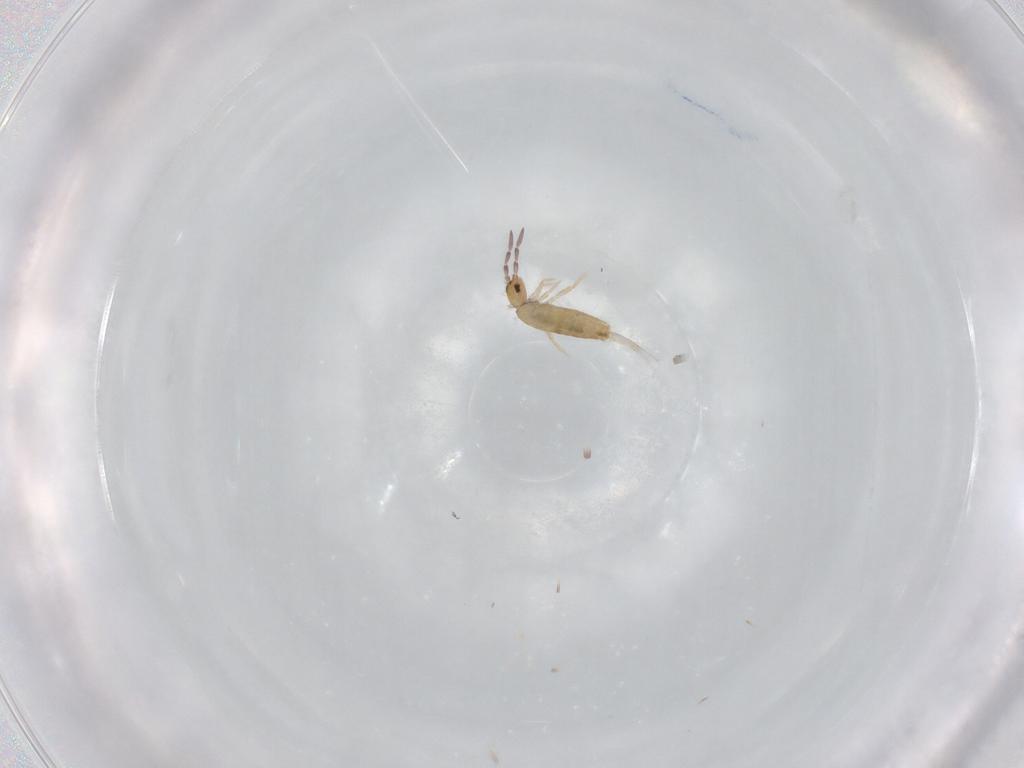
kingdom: Animalia
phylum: Arthropoda
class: Collembola
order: Entomobryomorpha
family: Entomobryidae
